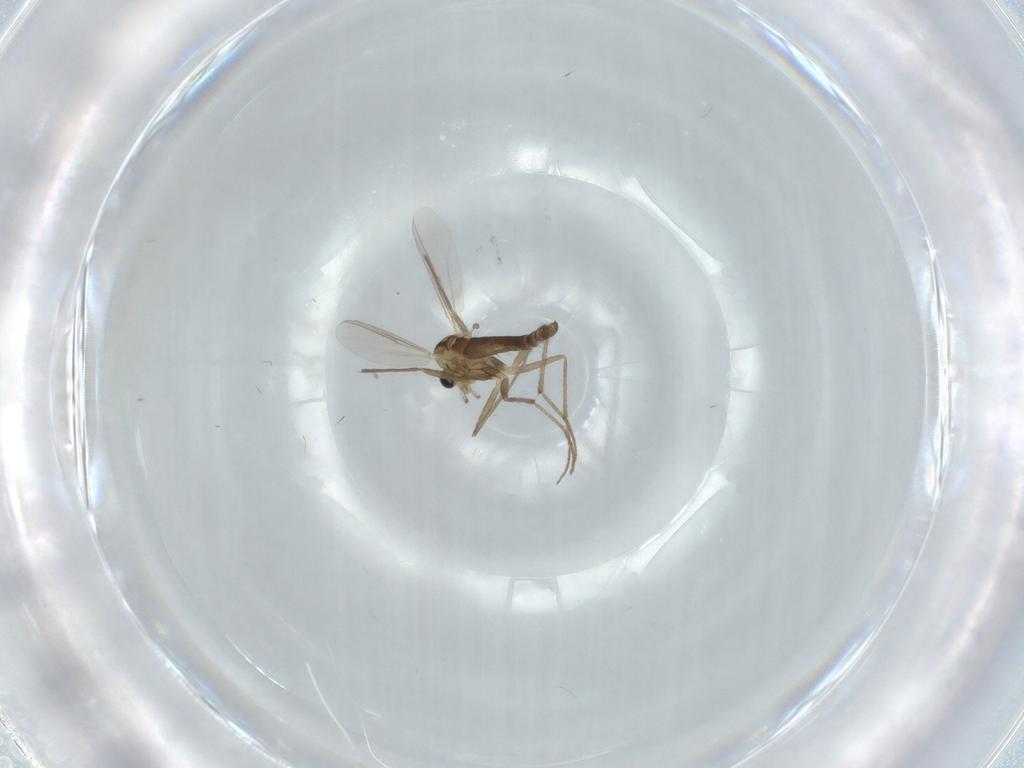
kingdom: Animalia
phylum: Arthropoda
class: Insecta
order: Diptera
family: Chironomidae
